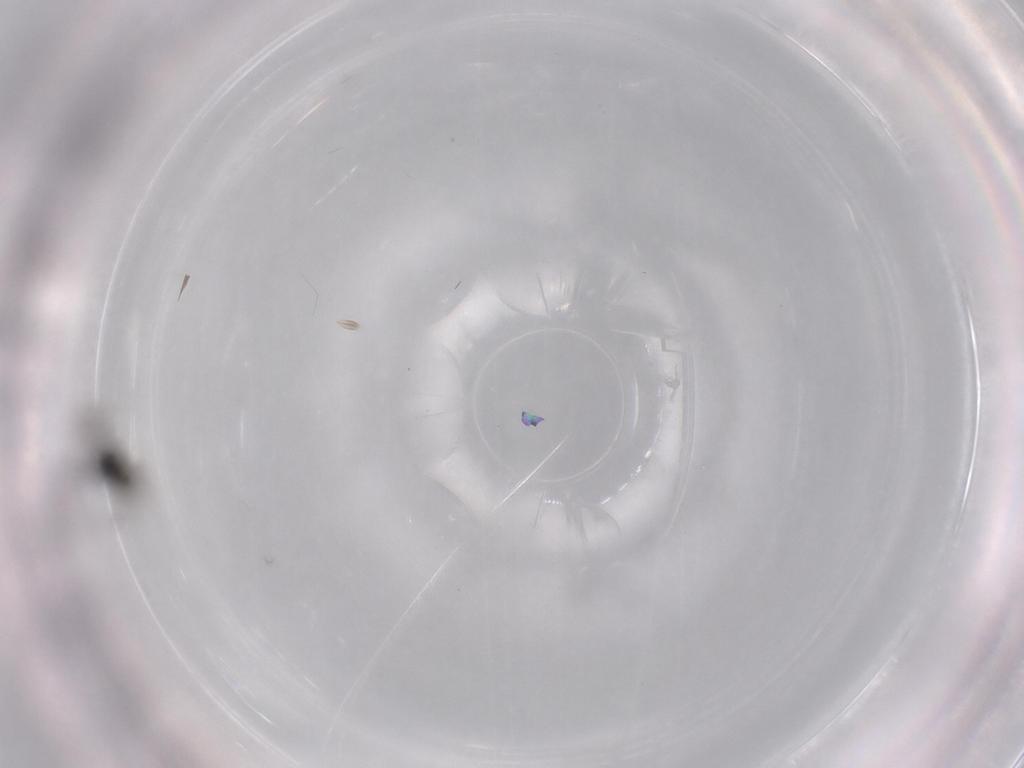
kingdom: Animalia
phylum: Arthropoda
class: Insecta
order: Hymenoptera
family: Scelionidae
